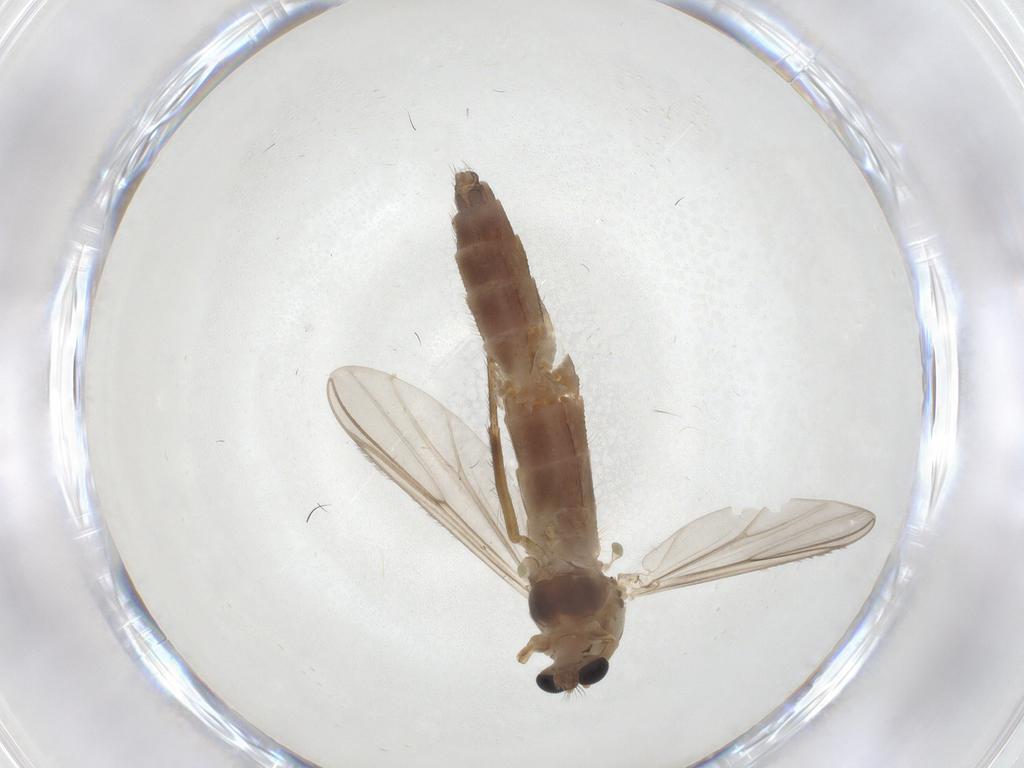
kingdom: Animalia
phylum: Arthropoda
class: Insecta
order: Diptera
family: Chironomidae
